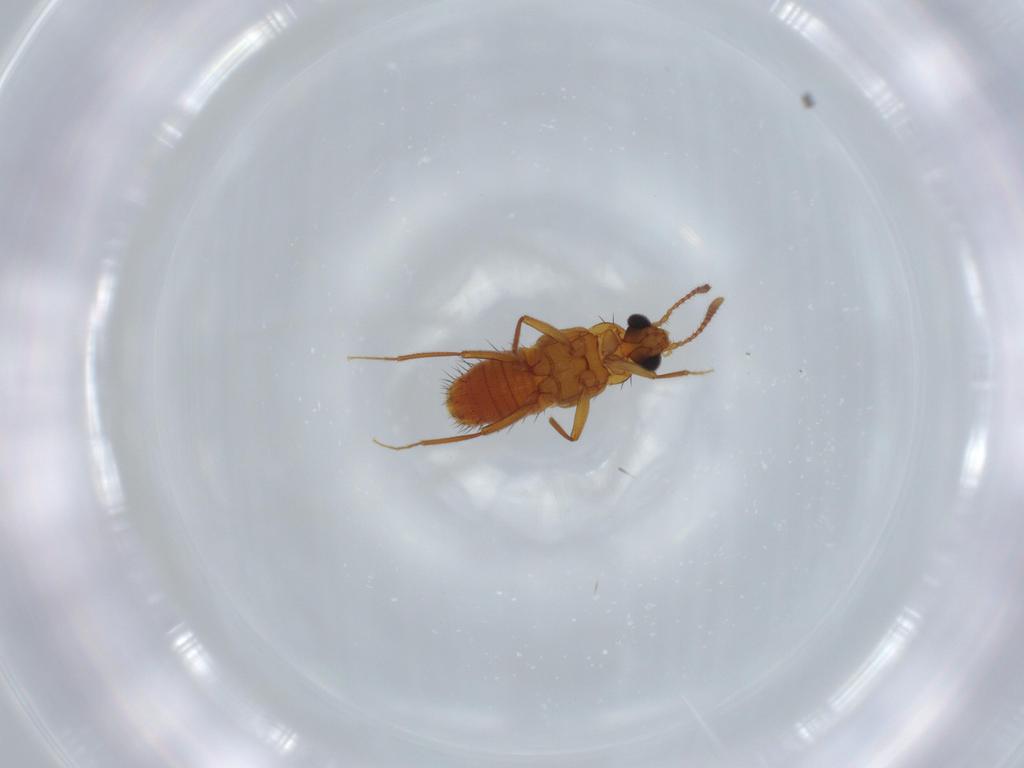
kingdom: Animalia
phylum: Arthropoda
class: Insecta
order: Coleoptera
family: Staphylinidae
